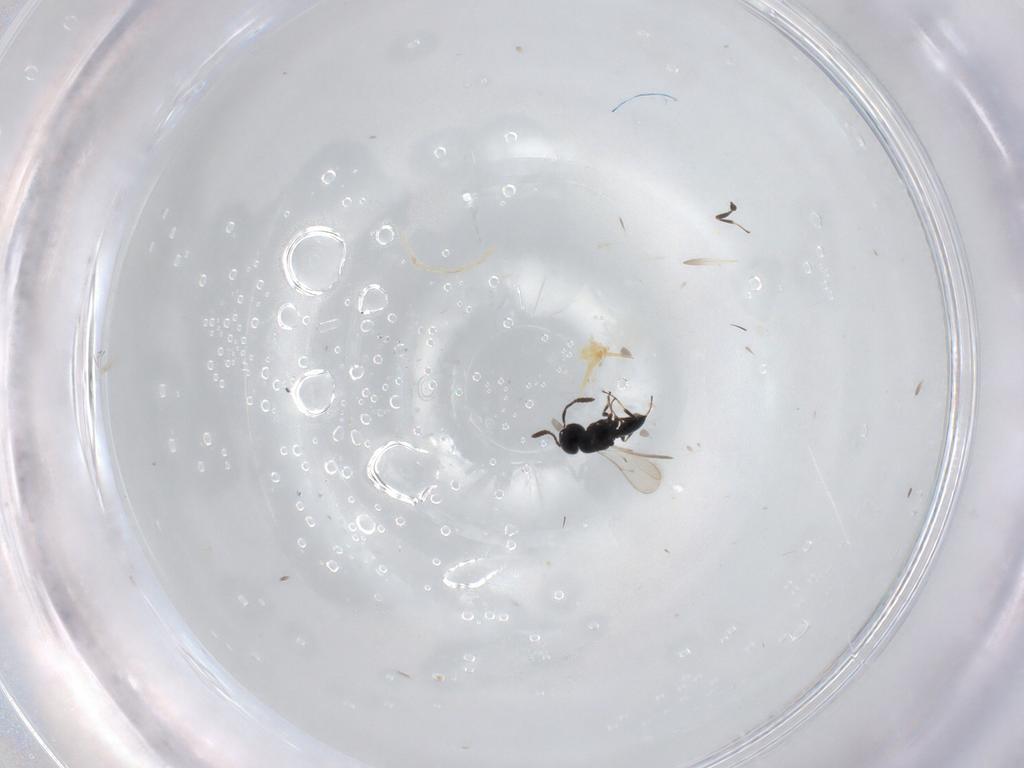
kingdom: Animalia
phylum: Arthropoda
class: Insecta
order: Hymenoptera
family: Scelionidae
